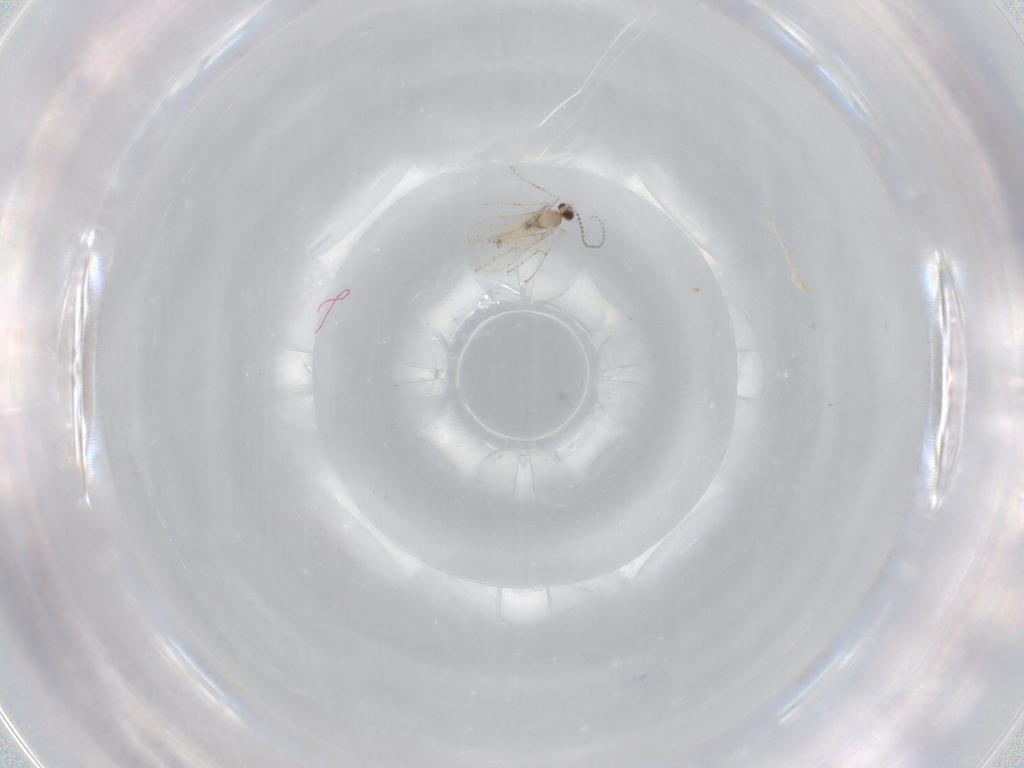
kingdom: Animalia
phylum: Arthropoda
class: Insecta
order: Diptera
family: Cecidomyiidae
